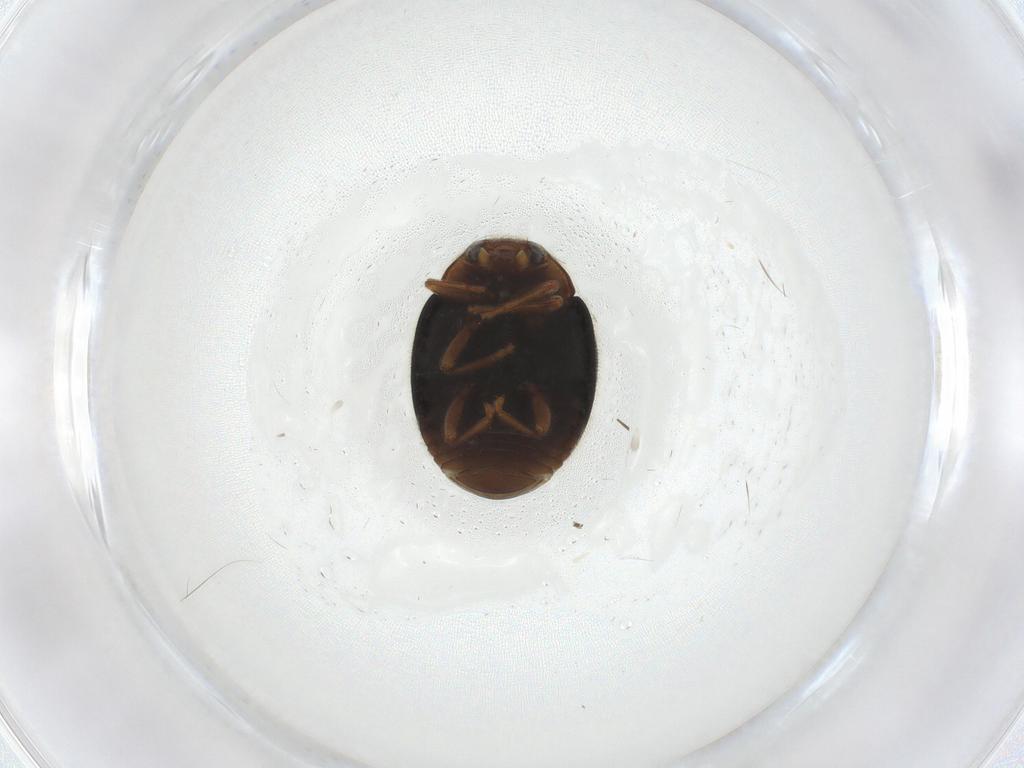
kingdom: Animalia
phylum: Arthropoda
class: Insecta
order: Coleoptera
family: Coccinellidae
